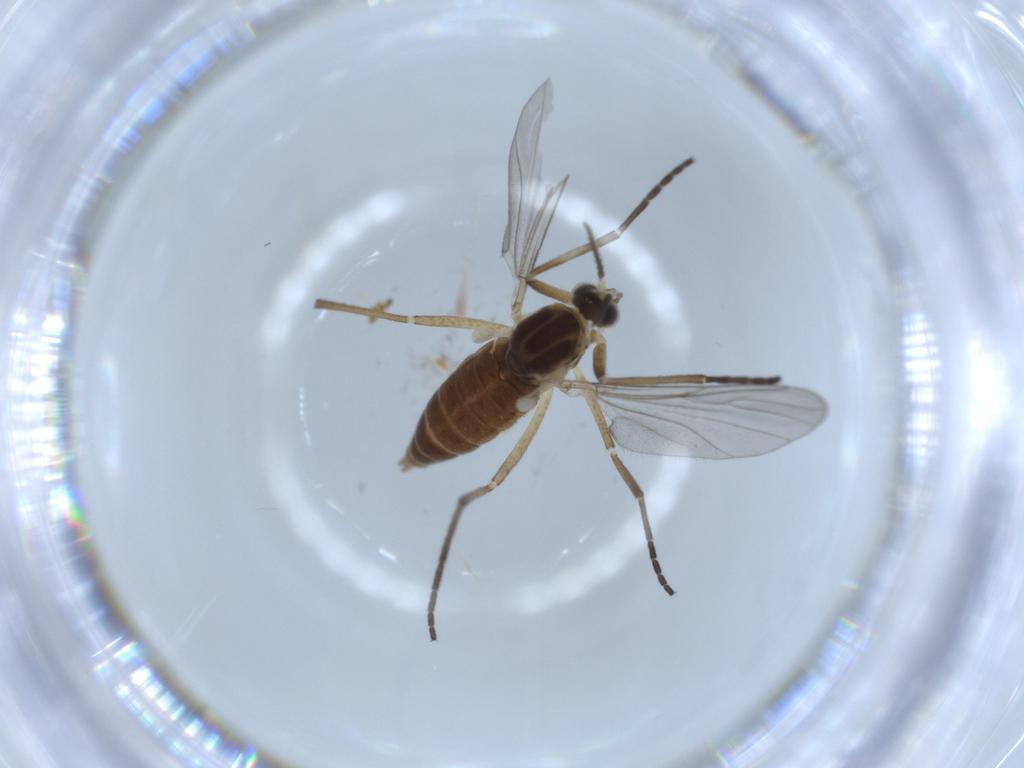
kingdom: Animalia
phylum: Arthropoda
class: Insecta
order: Diptera
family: Cecidomyiidae
